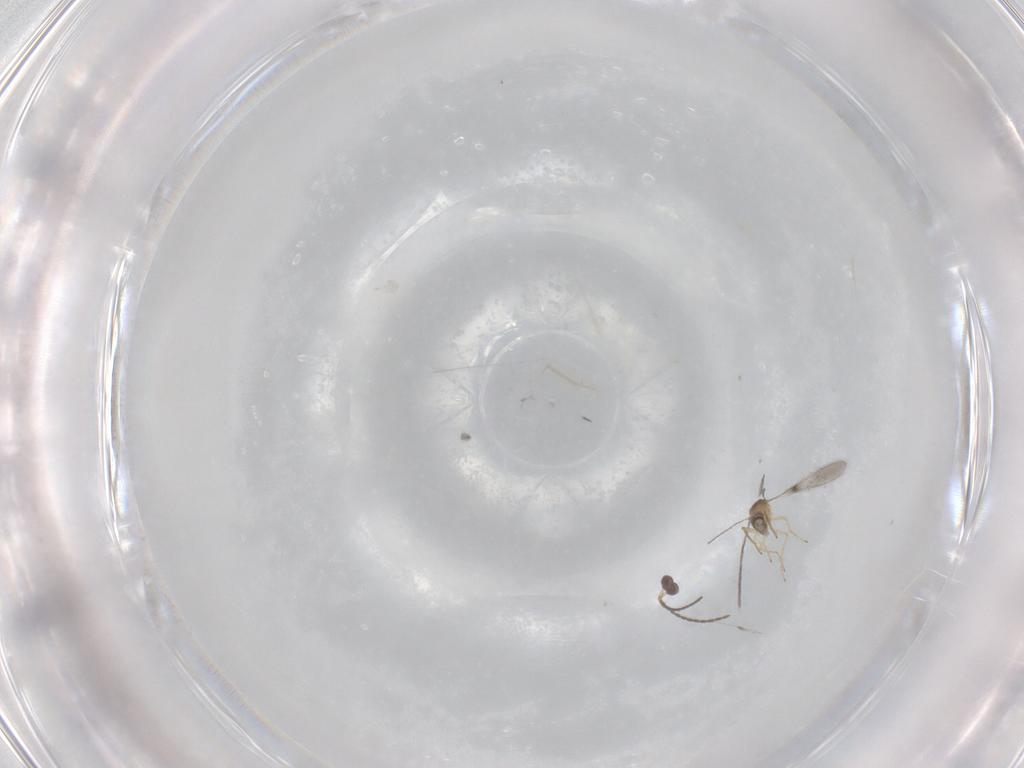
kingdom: Animalia
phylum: Arthropoda
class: Insecta
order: Hymenoptera
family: Mymaridae
